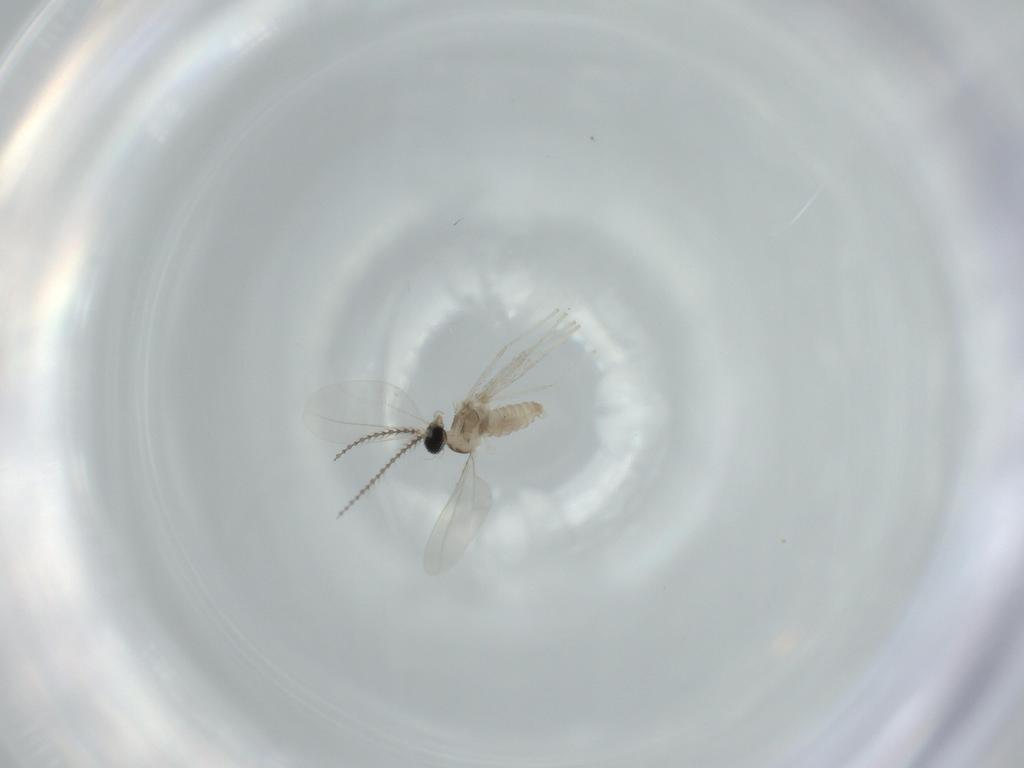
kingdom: Animalia
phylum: Arthropoda
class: Insecta
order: Diptera
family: Cecidomyiidae
